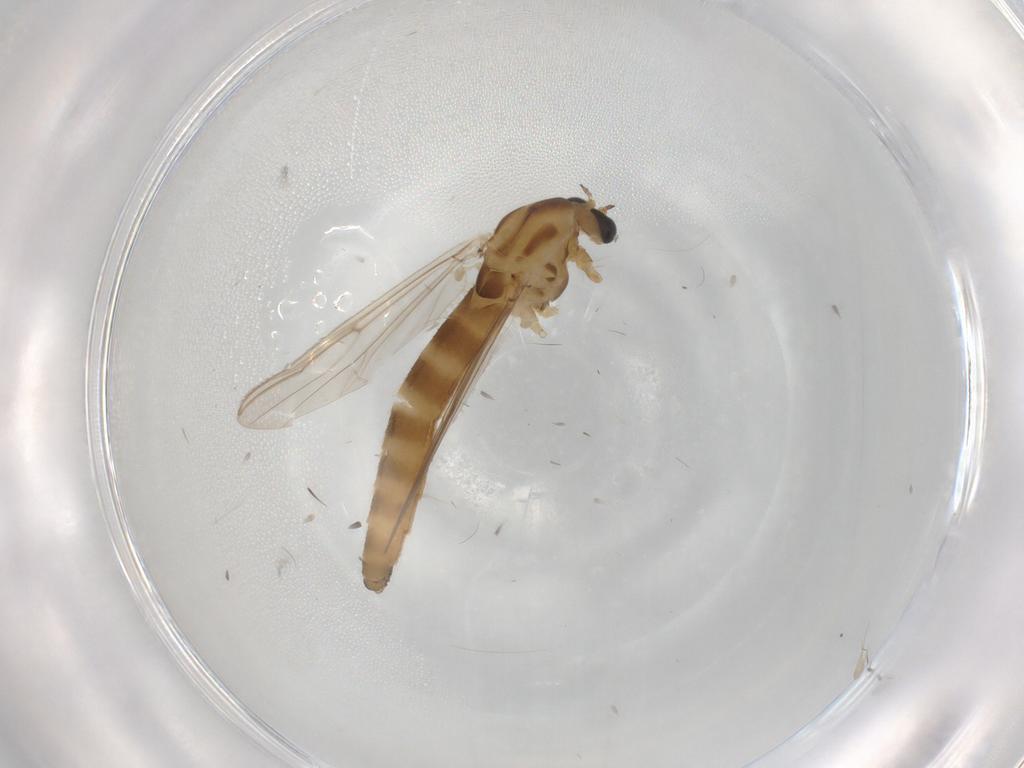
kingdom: Animalia
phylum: Arthropoda
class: Insecta
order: Diptera
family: Chironomidae
